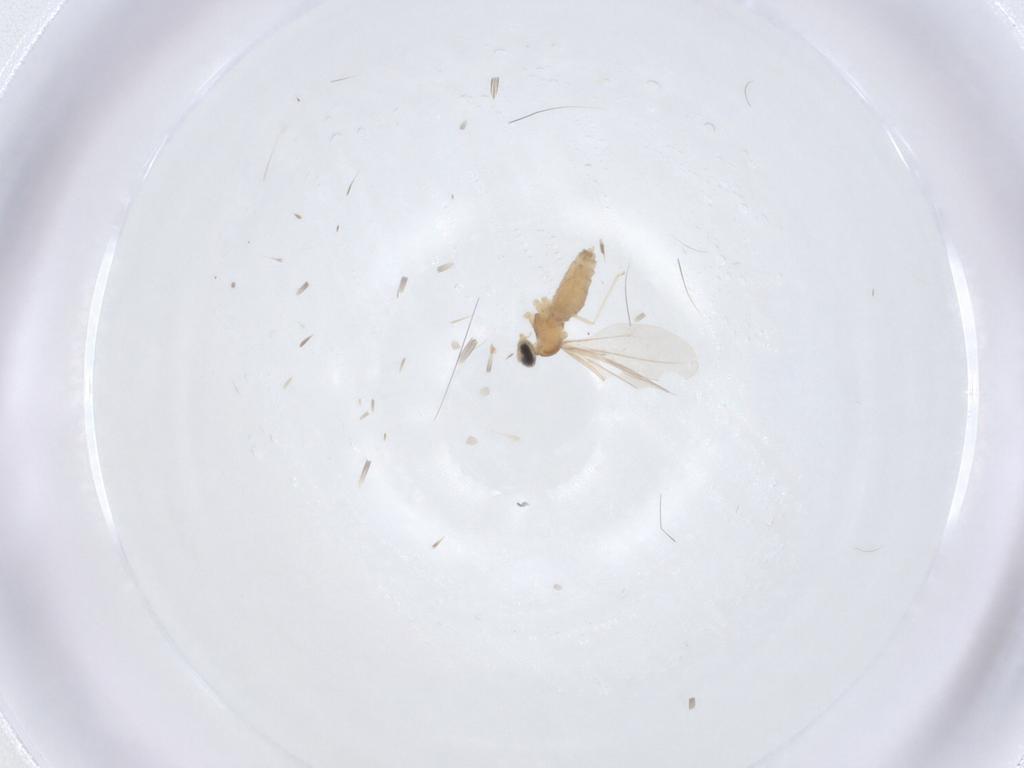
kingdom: Animalia
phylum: Arthropoda
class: Insecta
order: Diptera
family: Cecidomyiidae
